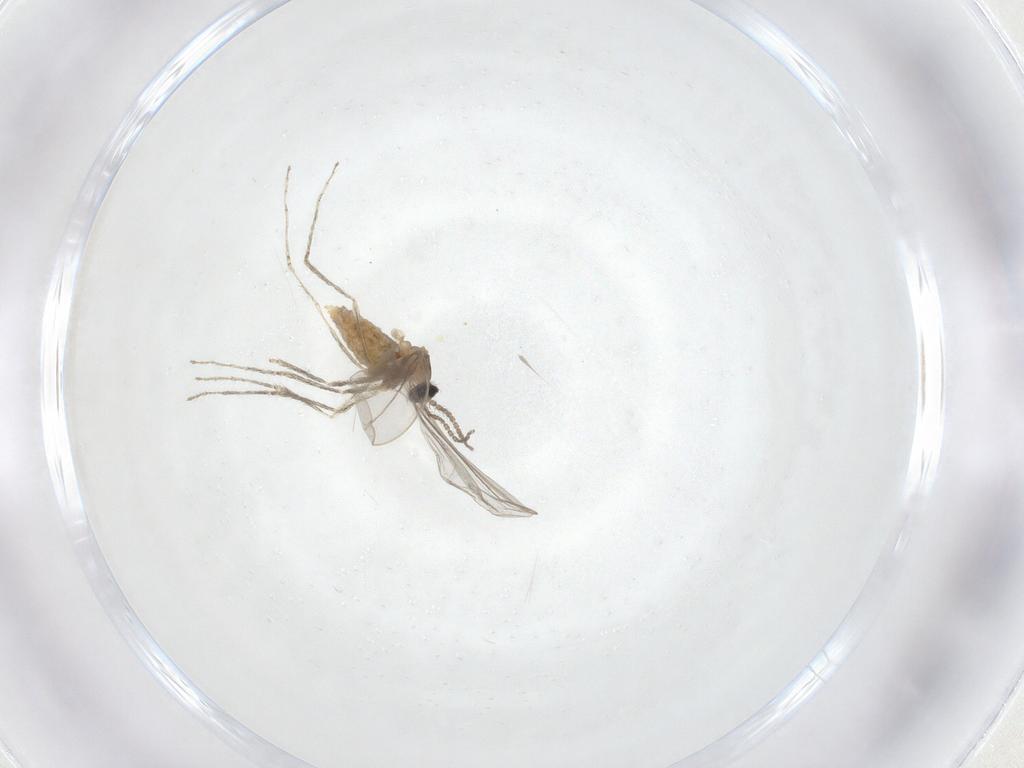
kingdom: Animalia
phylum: Arthropoda
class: Insecta
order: Diptera
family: Cecidomyiidae
